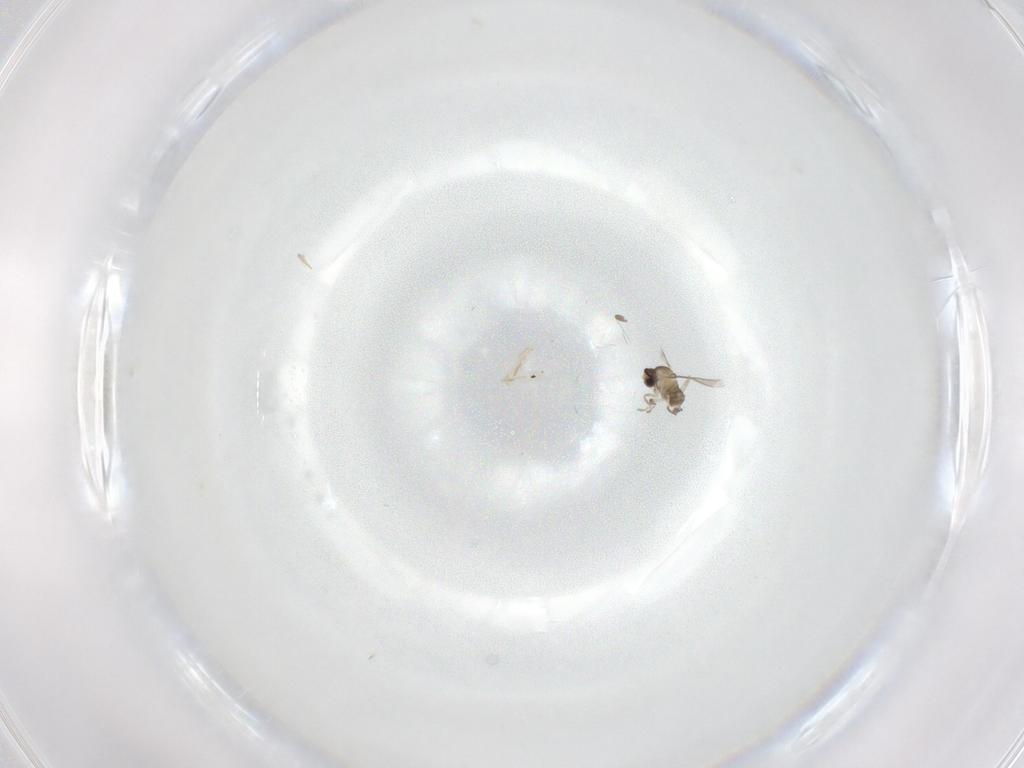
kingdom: Animalia
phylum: Arthropoda
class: Insecta
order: Diptera
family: Cecidomyiidae
